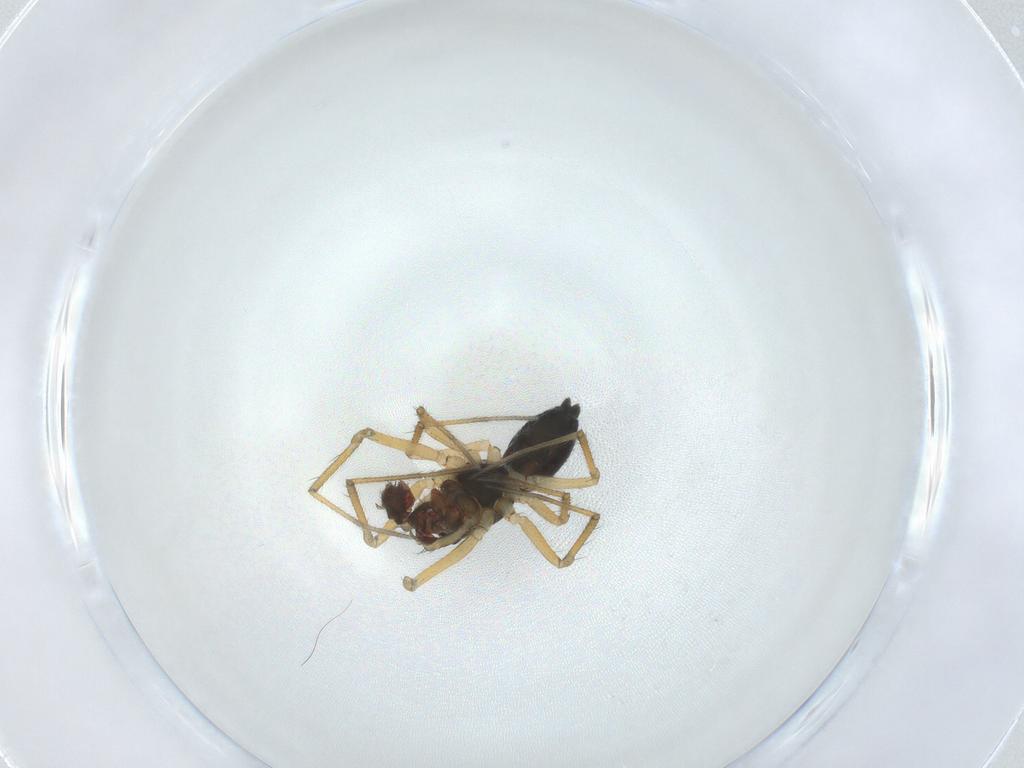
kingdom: Animalia
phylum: Arthropoda
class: Arachnida
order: Araneae
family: Linyphiidae
